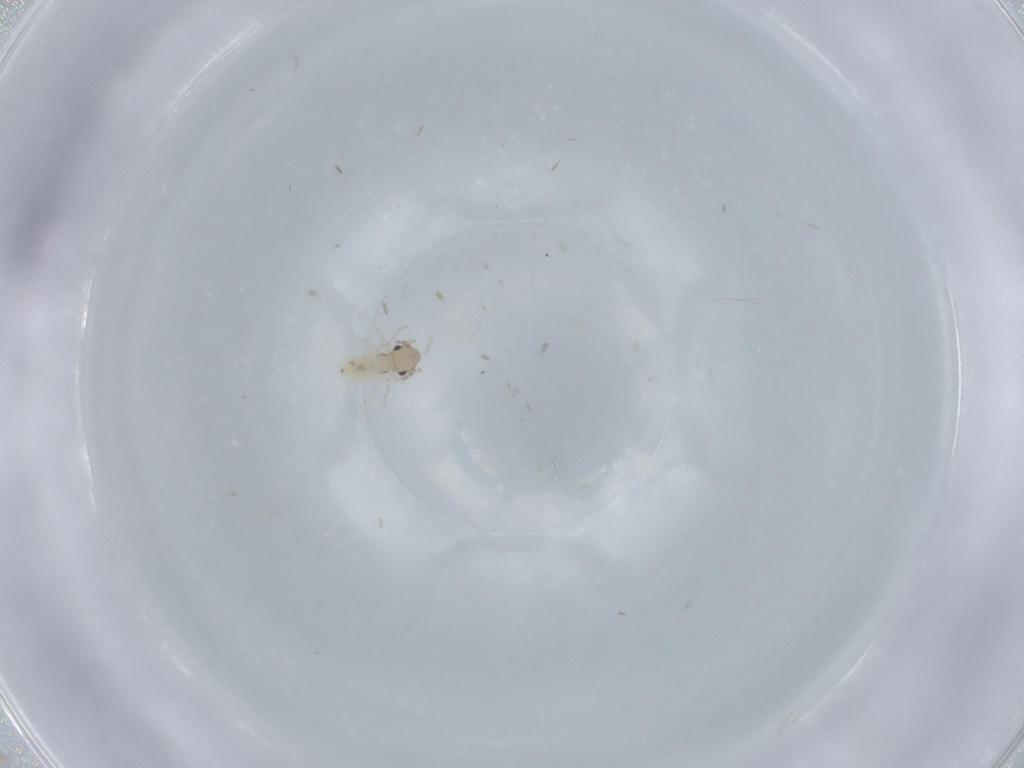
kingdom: Animalia
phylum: Arthropoda
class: Insecta
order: Psocodea
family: Lepidopsocidae
